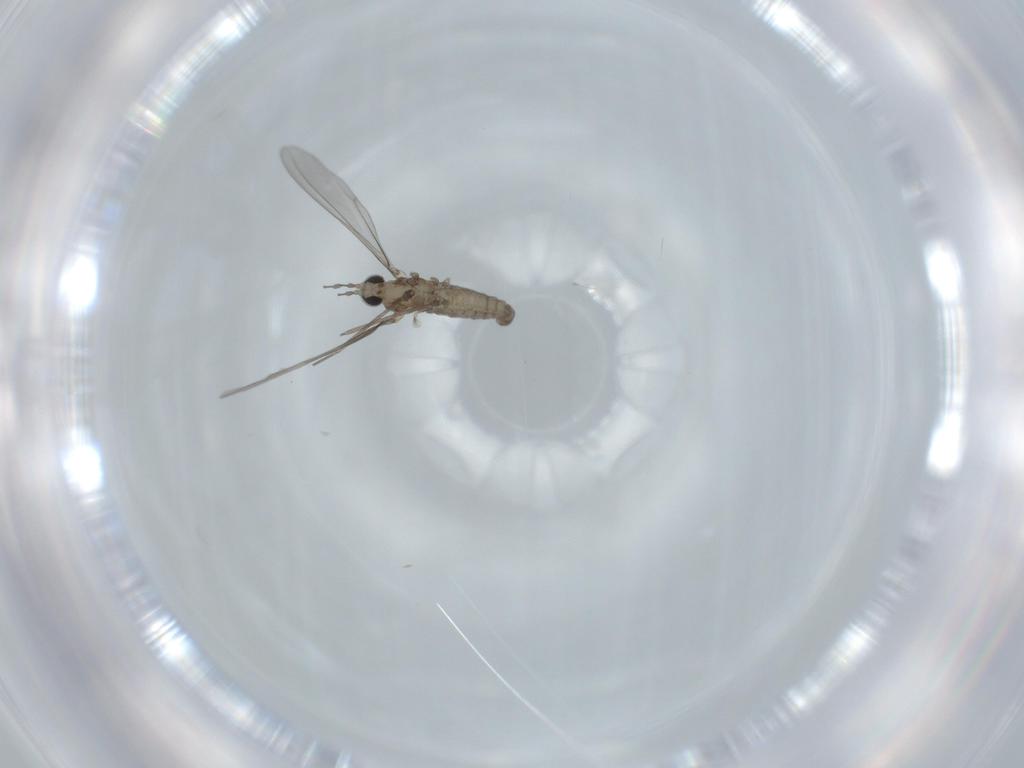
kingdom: Animalia
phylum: Arthropoda
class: Insecta
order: Diptera
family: Cecidomyiidae
